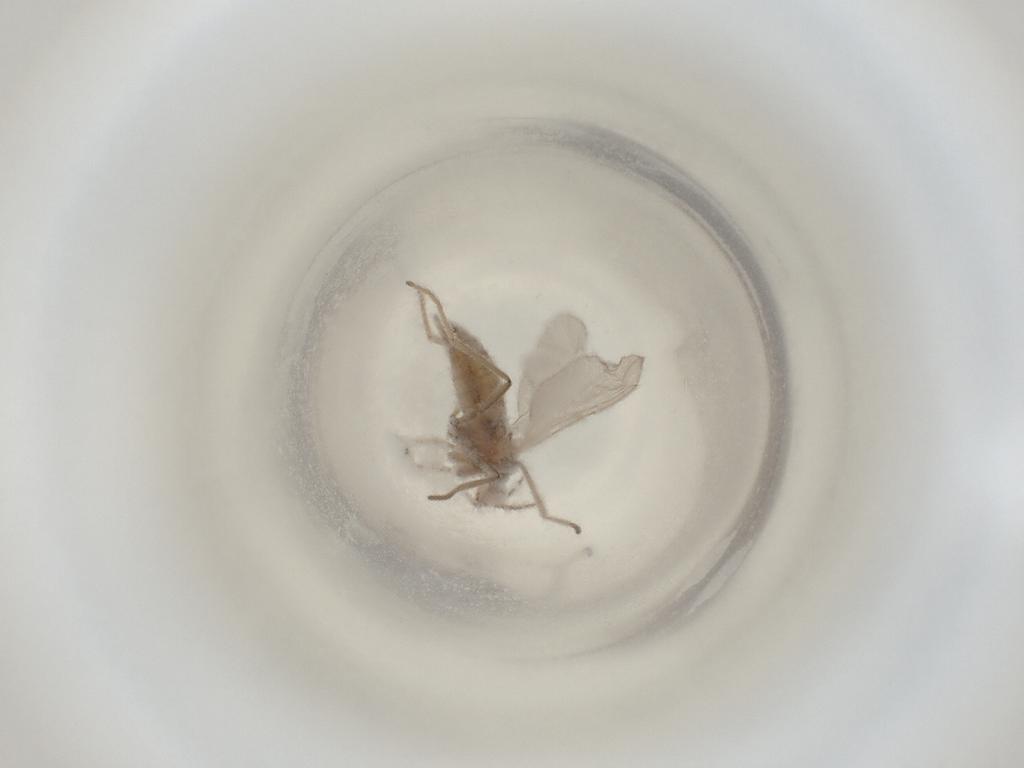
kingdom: Animalia
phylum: Arthropoda
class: Insecta
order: Diptera
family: Cecidomyiidae
